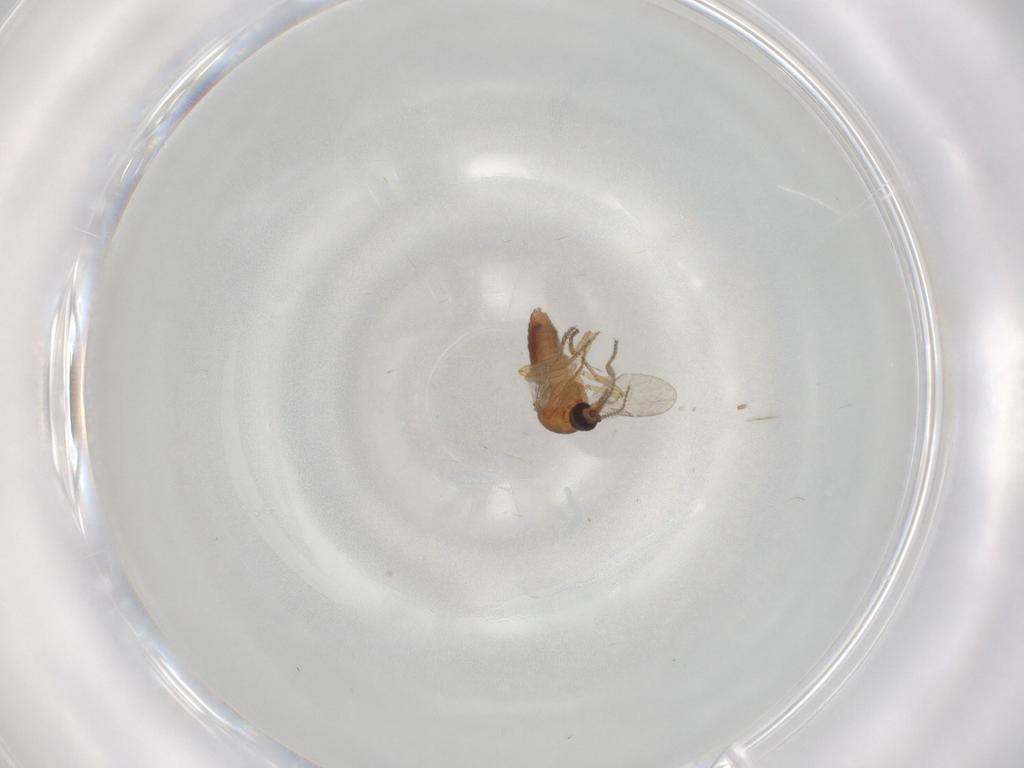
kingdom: Animalia
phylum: Arthropoda
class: Insecta
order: Diptera
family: Ceratopogonidae
